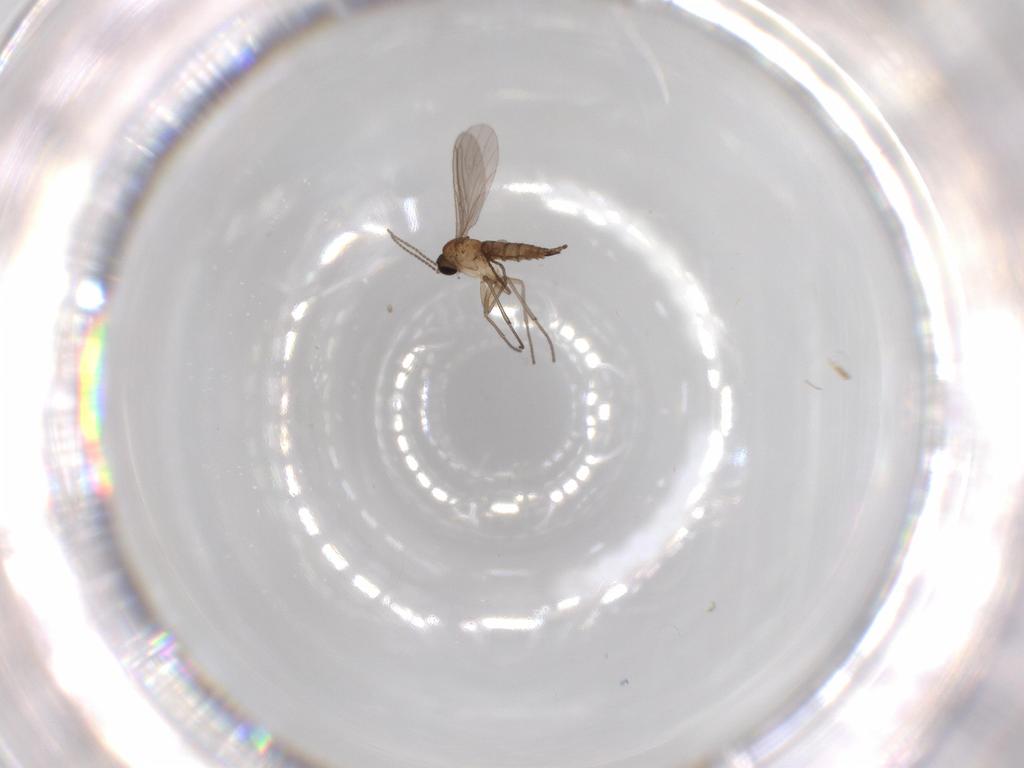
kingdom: Animalia
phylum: Arthropoda
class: Insecta
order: Diptera
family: Sciaridae
